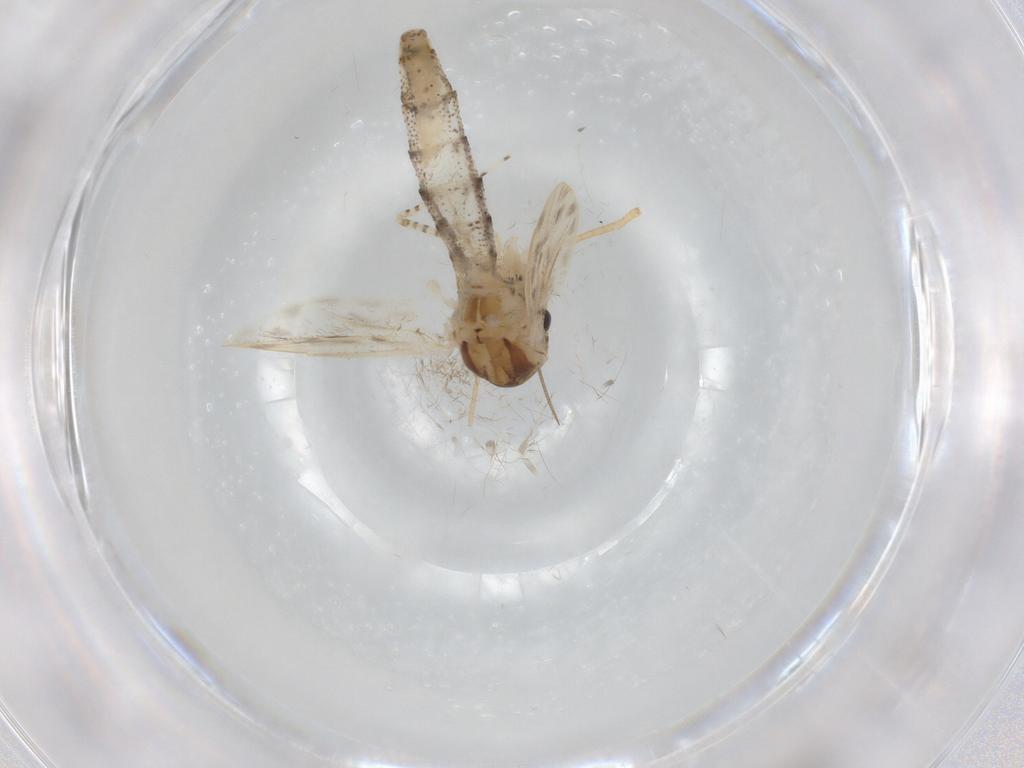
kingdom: Animalia
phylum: Arthropoda
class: Insecta
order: Diptera
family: Chaoboridae
